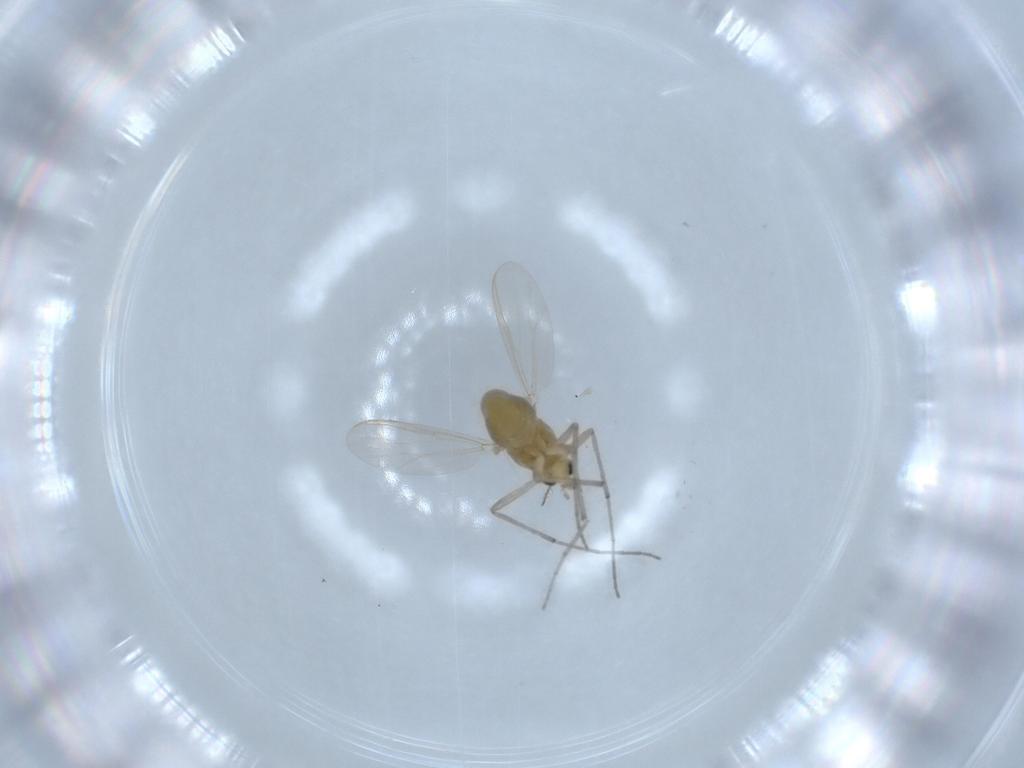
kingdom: Animalia
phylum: Arthropoda
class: Insecta
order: Diptera
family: Chironomidae
